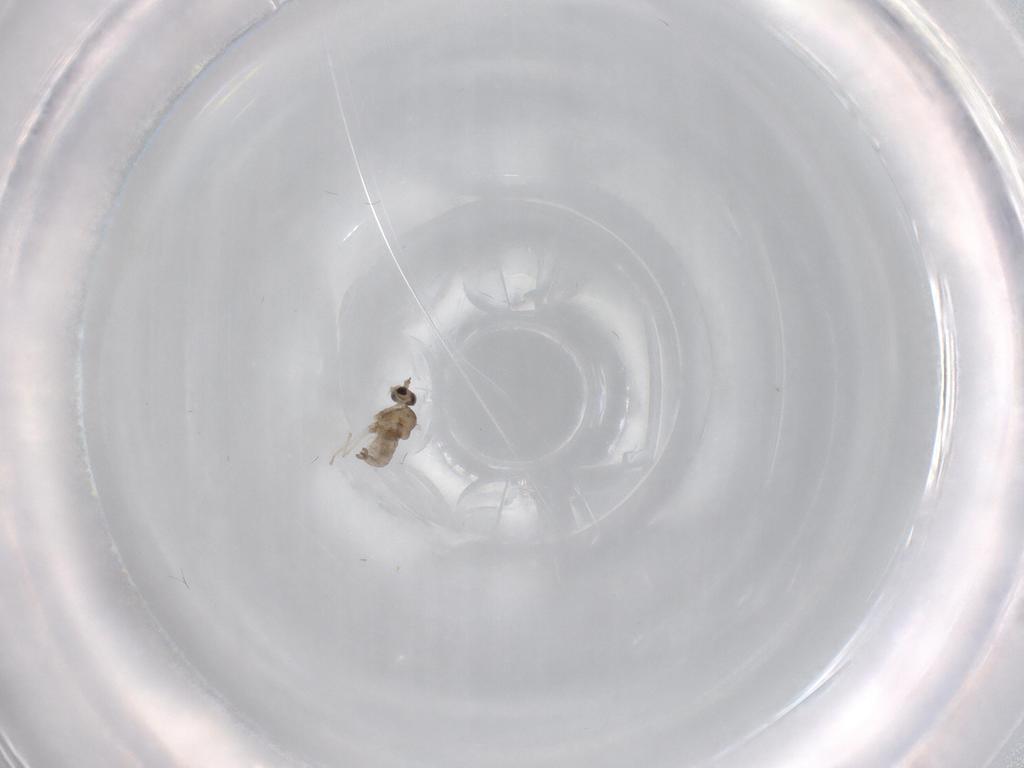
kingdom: Animalia
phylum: Arthropoda
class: Insecta
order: Diptera
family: Cecidomyiidae
